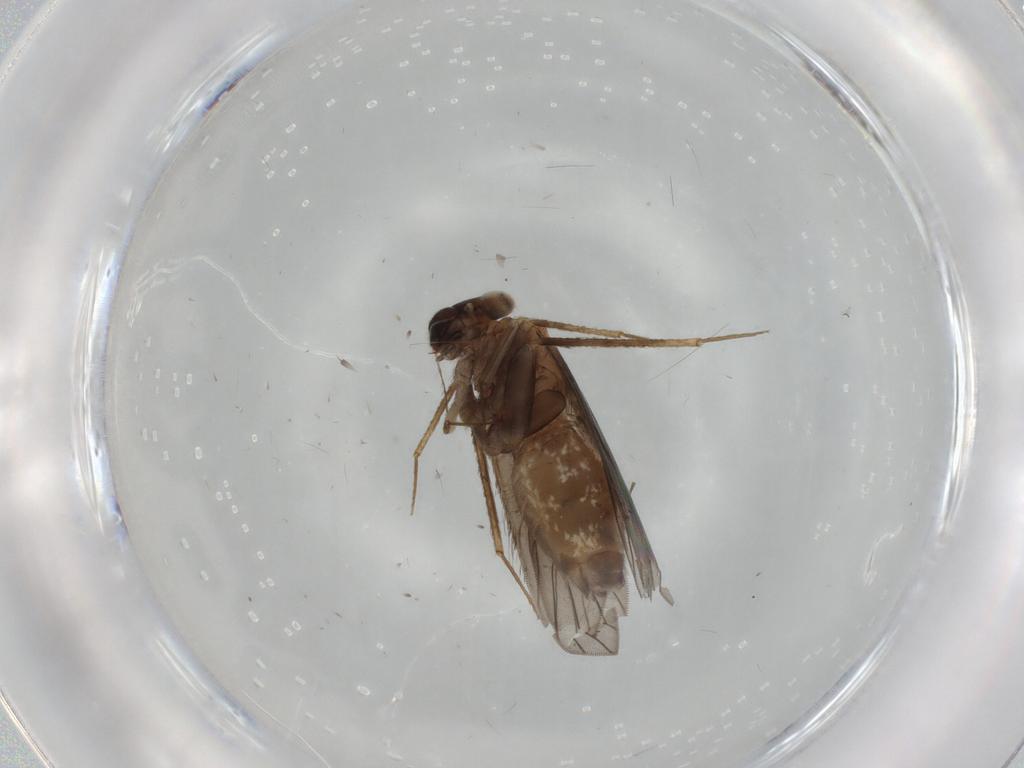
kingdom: Animalia
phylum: Arthropoda
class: Insecta
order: Psocodea
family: Lepidopsocidae
